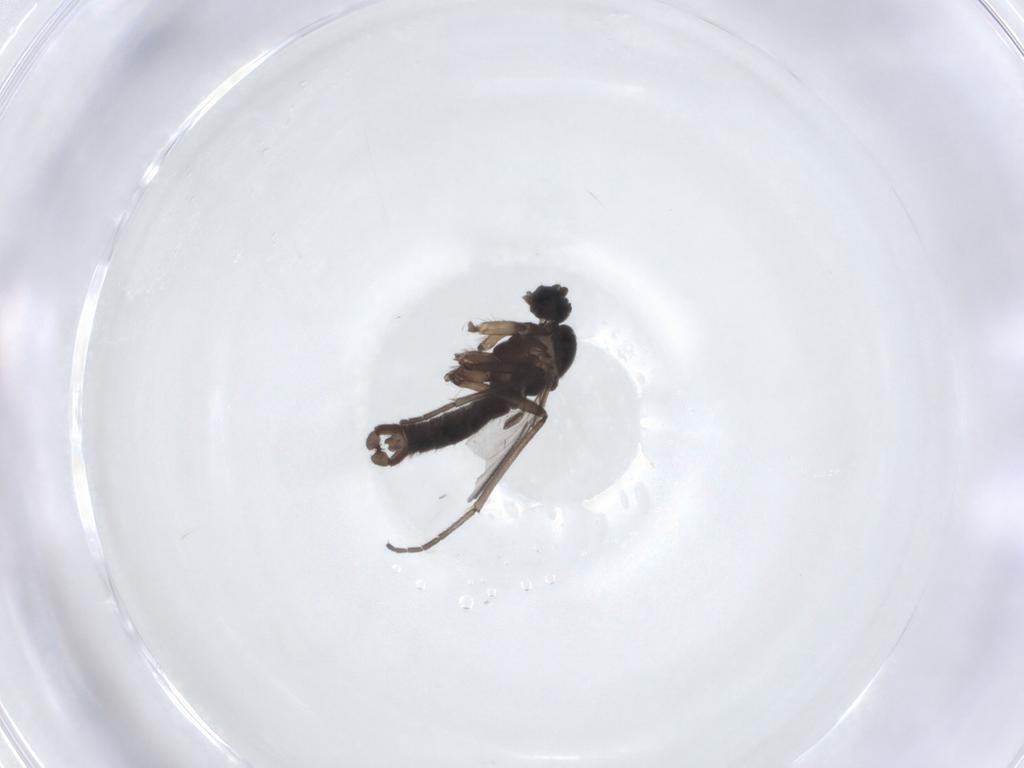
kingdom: Animalia
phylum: Arthropoda
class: Insecta
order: Diptera
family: Sciaridae
